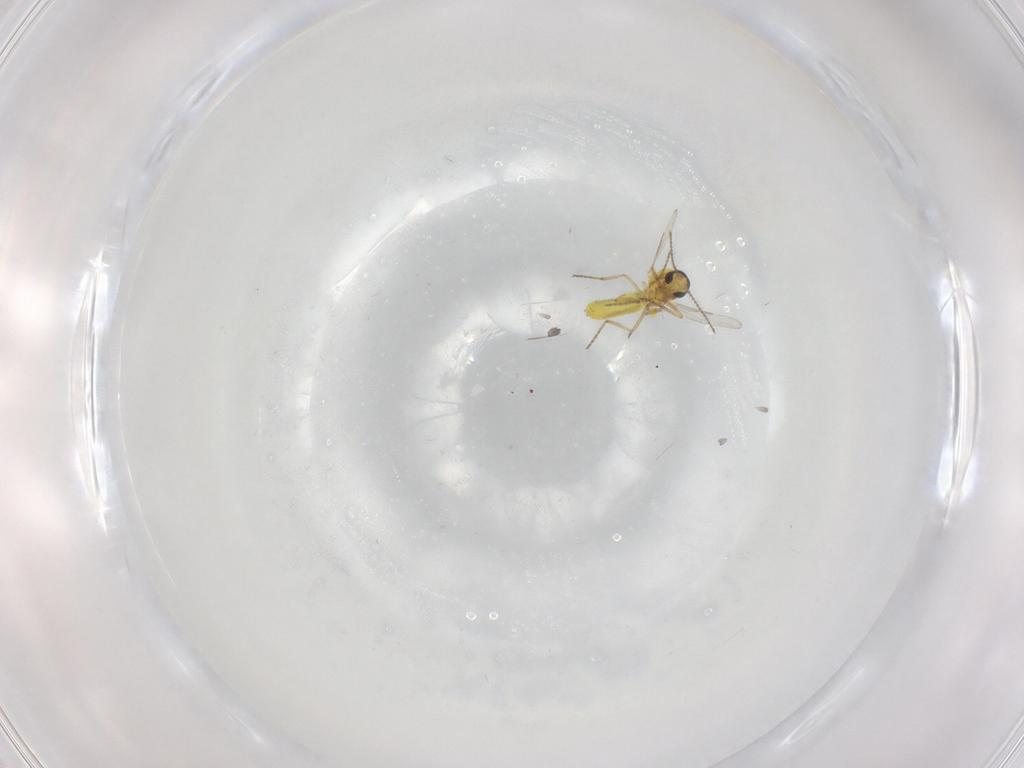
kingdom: Animalia
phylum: Arthropoda
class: Insecta
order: Diptera
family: Ceratopogonidae
